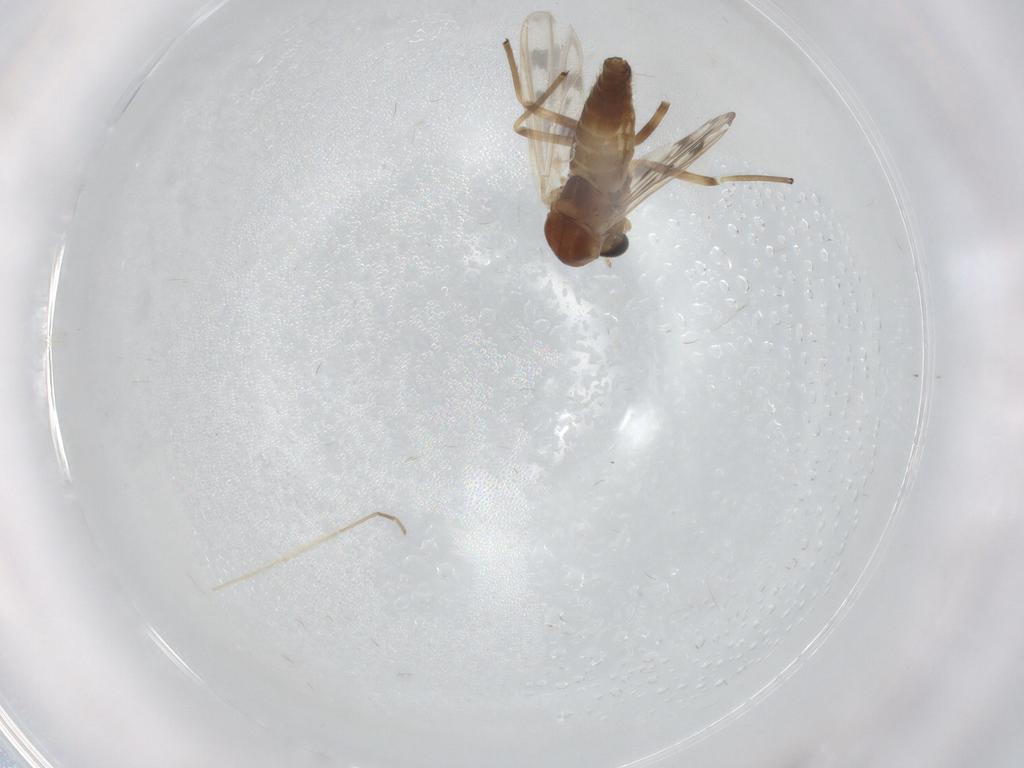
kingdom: Animalia
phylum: Arthropoda
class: Insecta
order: Diptera
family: Chironomidae
